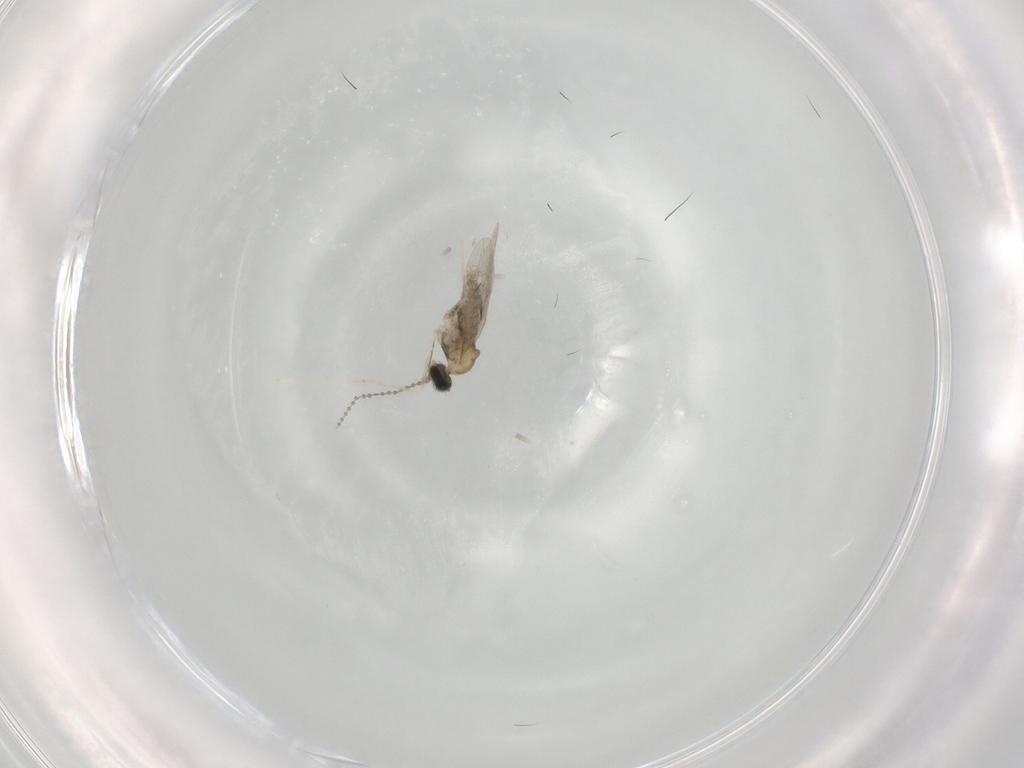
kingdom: Animalia
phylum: Arthropoda
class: Insecta
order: Diptera
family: Cecidomyiidae
